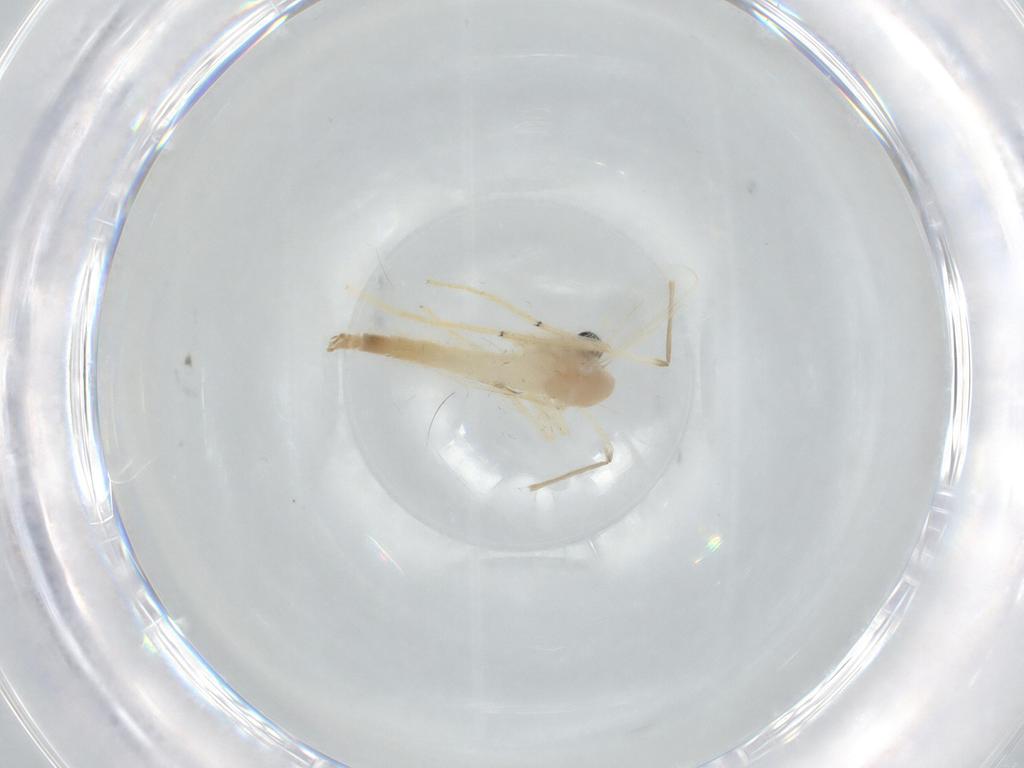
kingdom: Animalia
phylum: Arthropoda
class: Insecta
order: Diptera
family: Chironomidae
